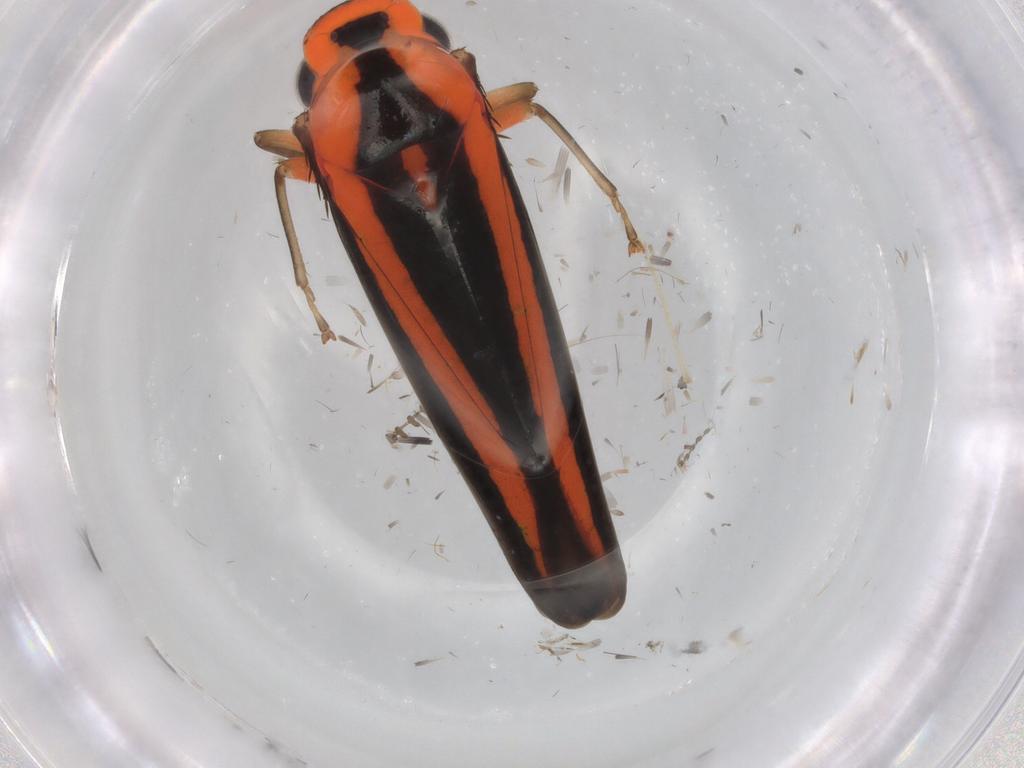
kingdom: Animalia
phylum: Arthropoda
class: Insecta
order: Hemiptera
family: Cicadellidae
